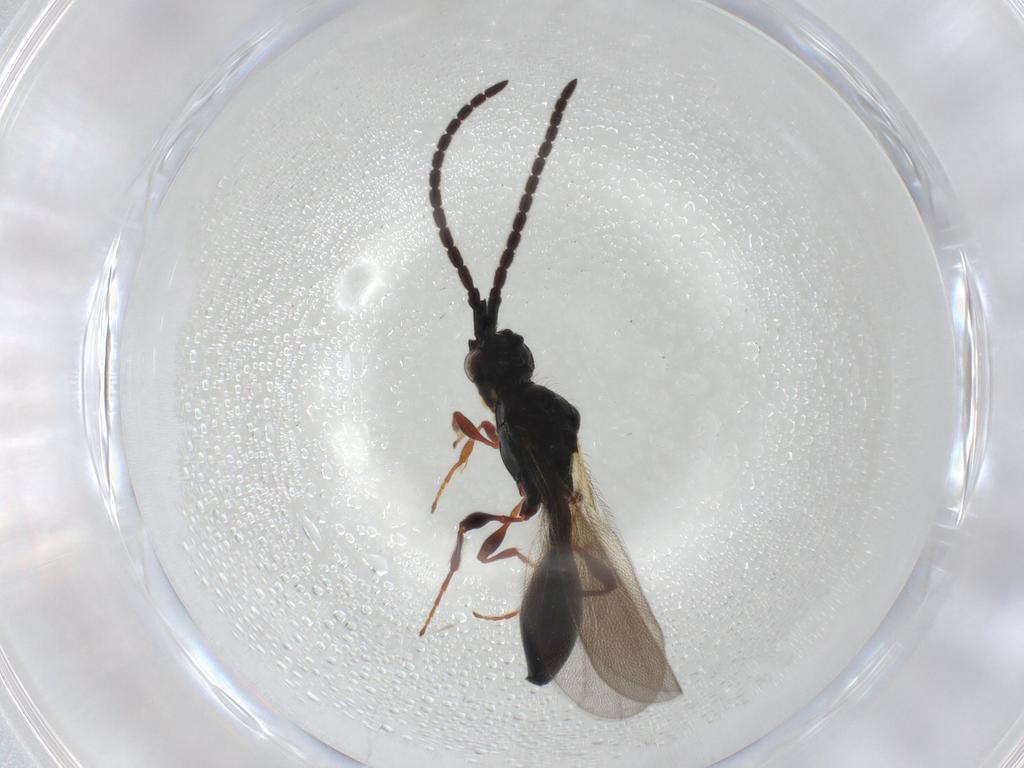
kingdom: Animalia
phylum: Arthropoda
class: Insecta
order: Hymenoptera
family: Diapriidae
